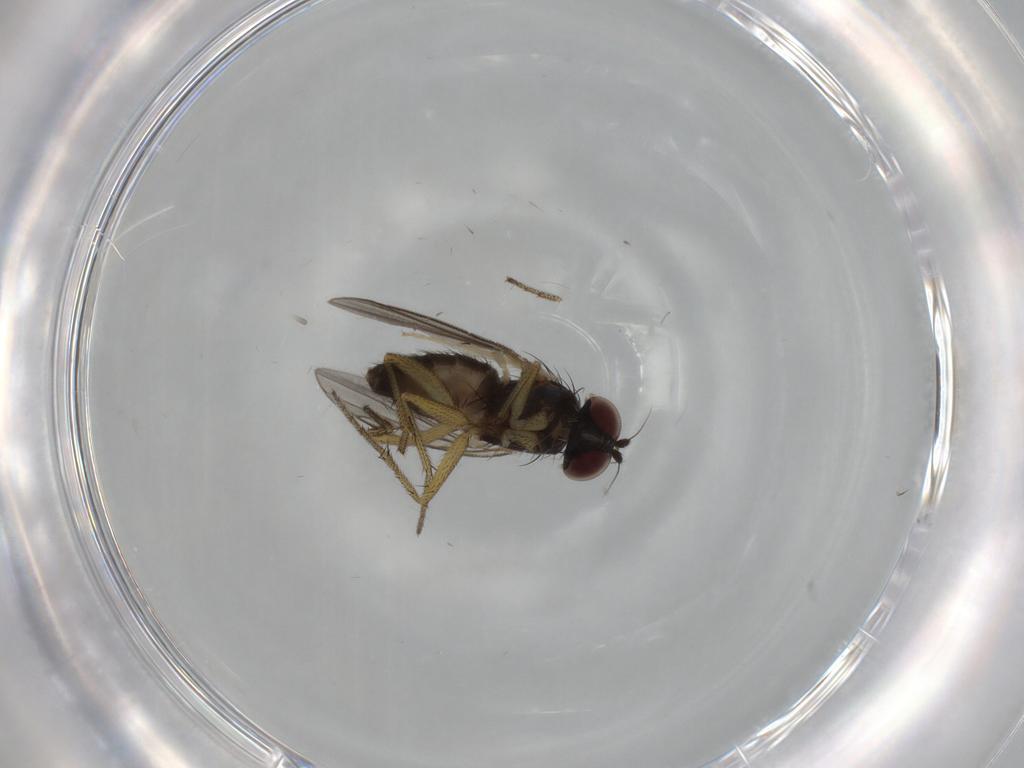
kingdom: Animalia
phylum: Arthropoda
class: Insecta
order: Diptera
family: Dolichopodidae
